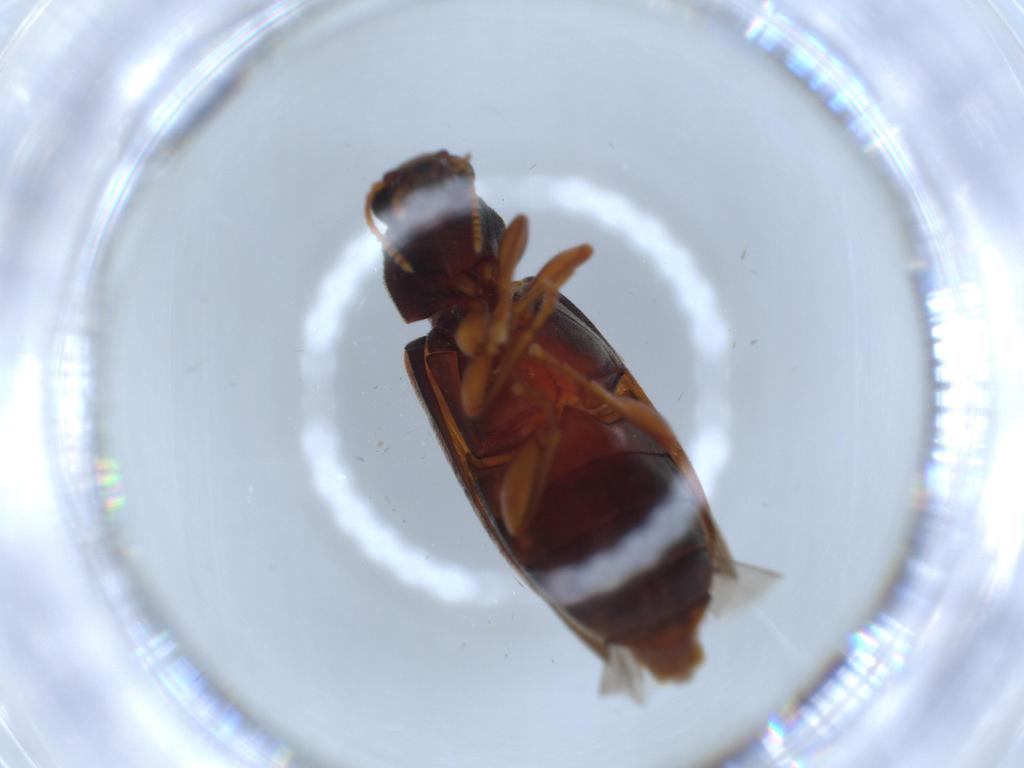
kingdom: Animalia
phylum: Arthropoda
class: Insecta
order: Coleoptera
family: Mycteridae
